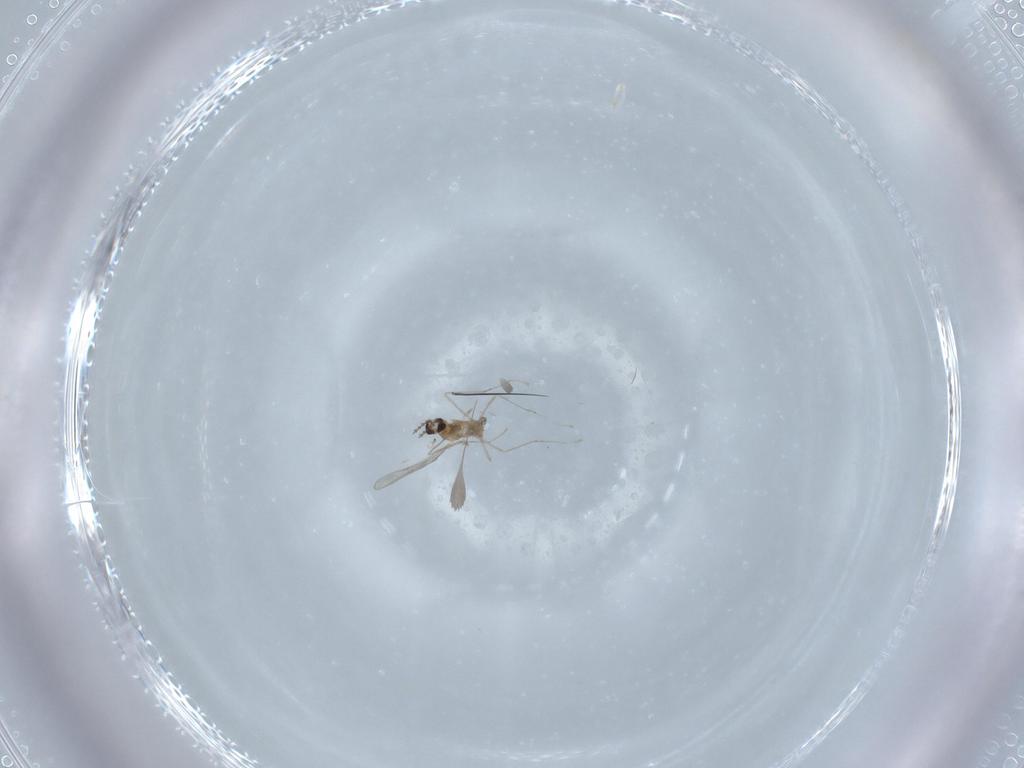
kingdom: Animalia
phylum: Arthropoda
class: Insecta
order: Diptera
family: Cecidomyiidae
